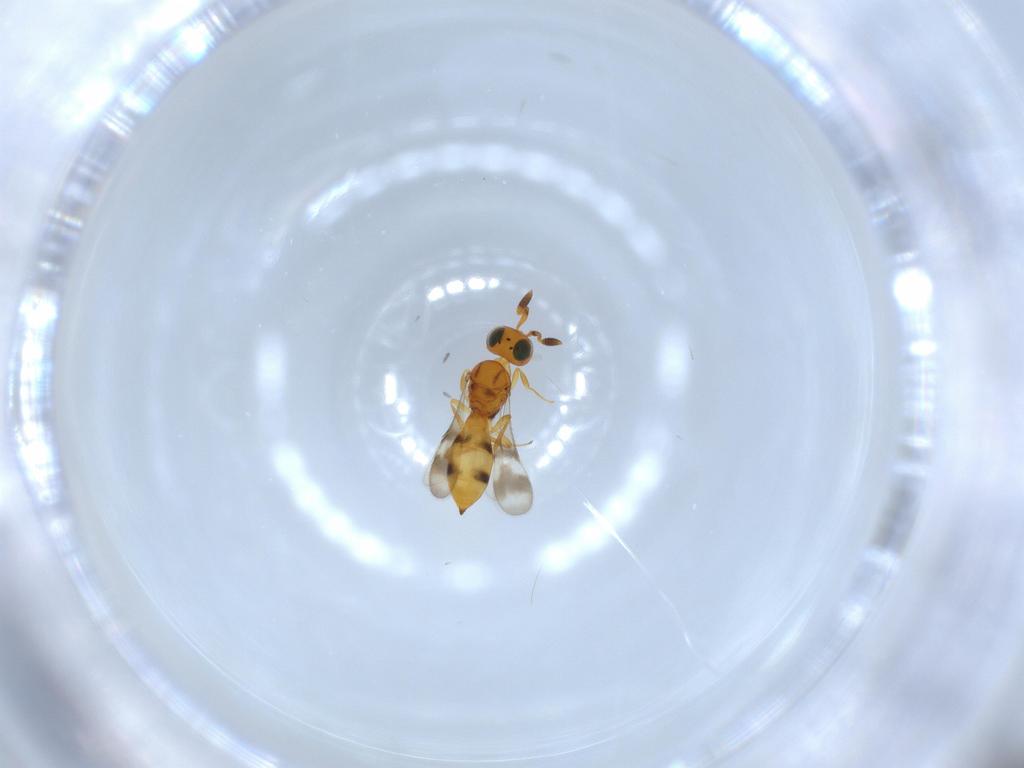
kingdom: Animalia
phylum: Arthropoda
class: Insecta
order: Hymenoptera
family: Scelionidae
